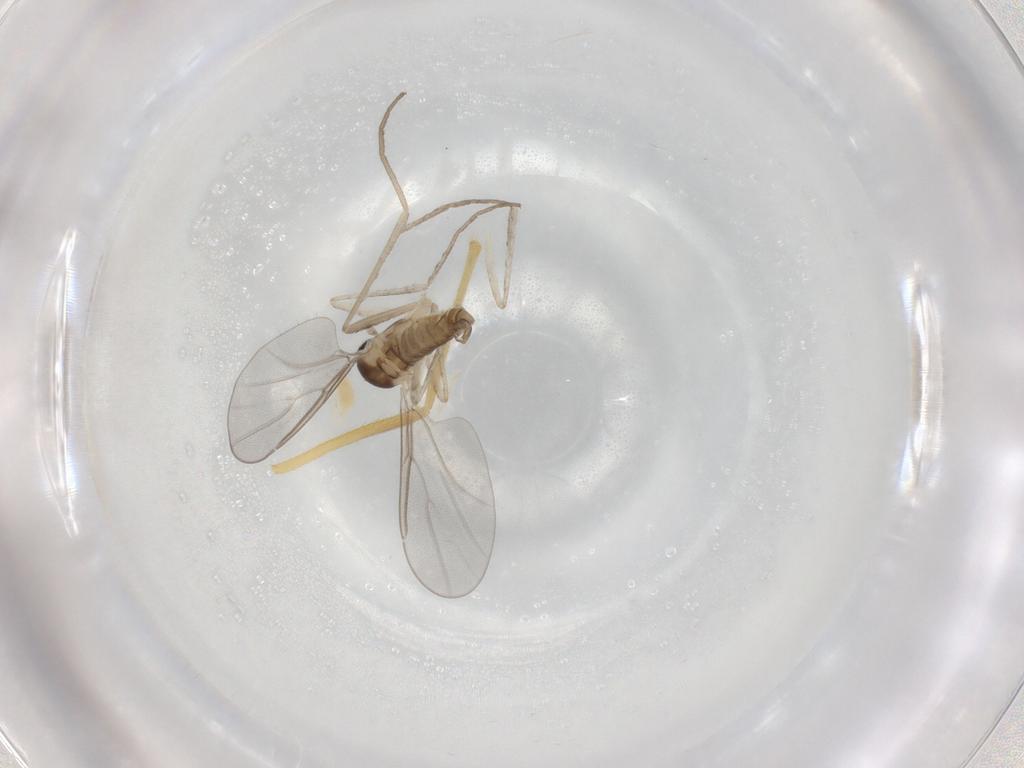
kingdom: Animalia
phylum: Arthropoda
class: Insecta
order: Diptera
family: Cecidomyiidae
